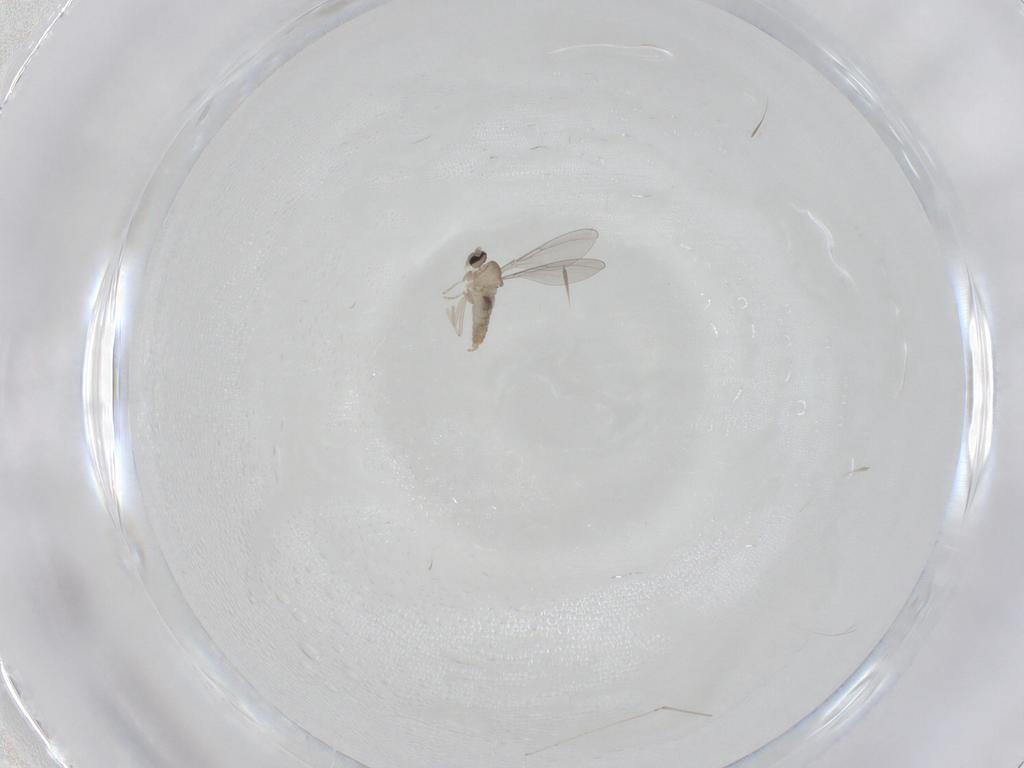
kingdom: Animalia
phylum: Arthropoda
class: Insecta
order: Diptera
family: Cecidomyiidae
